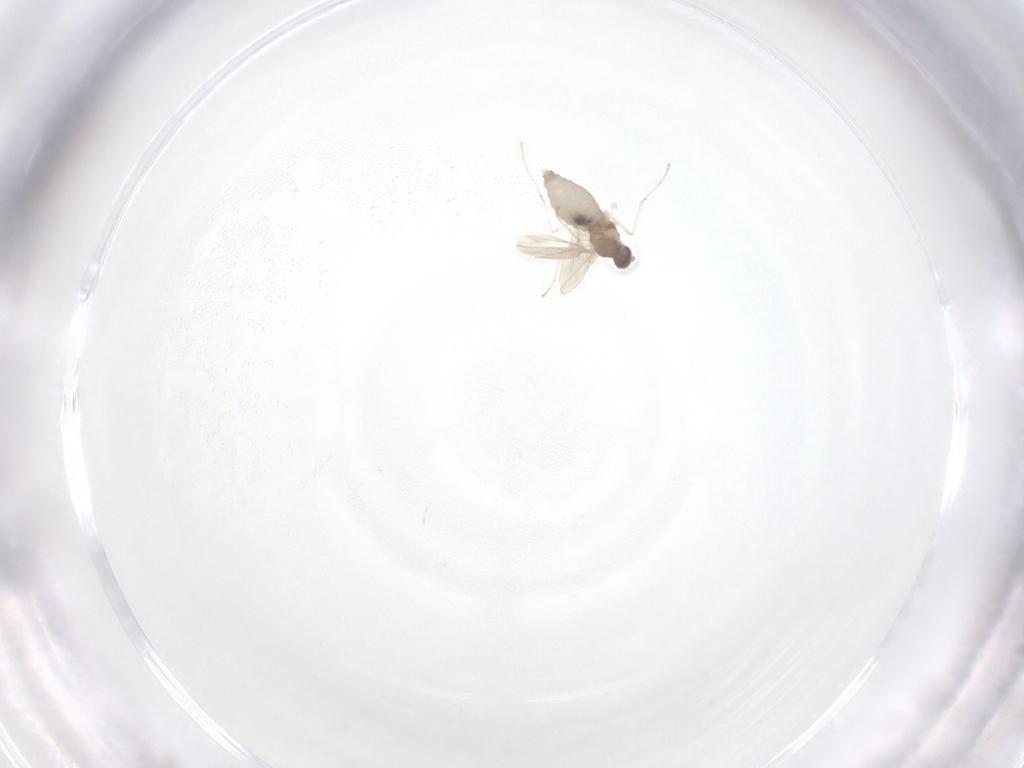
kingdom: Animalia
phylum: Arthropoda
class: Insecta
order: Diptera
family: Cecidomyiidae
